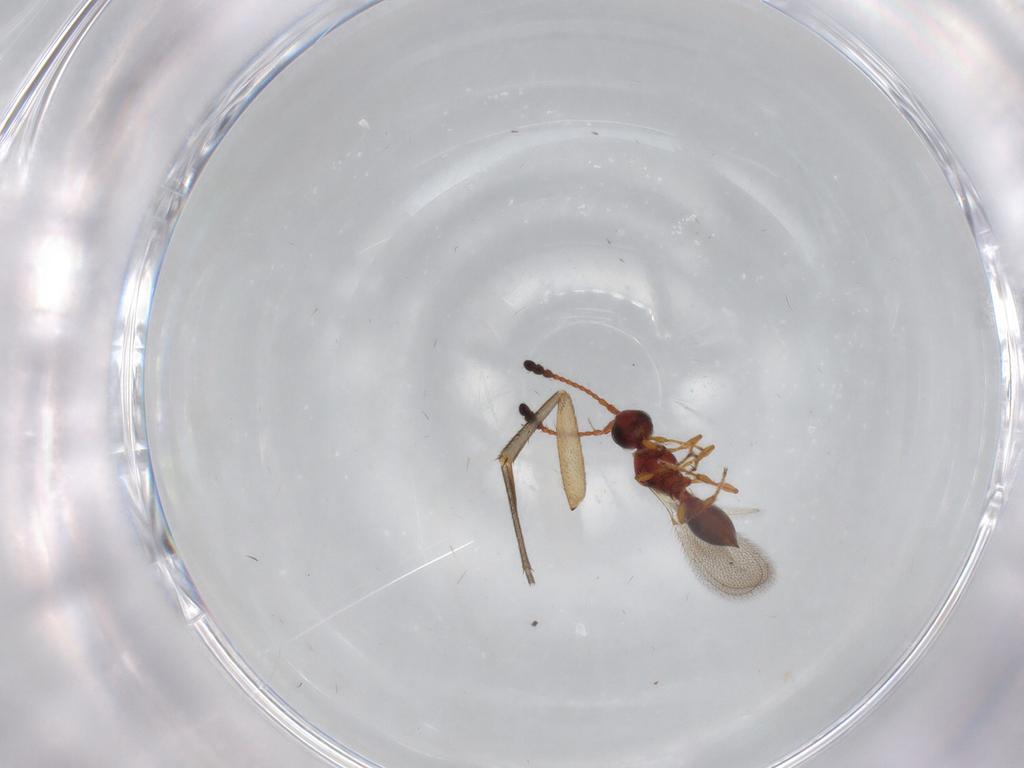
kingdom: Animalia
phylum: Arthropoda
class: Insecta
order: Hymenoptera
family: Diapriidae
